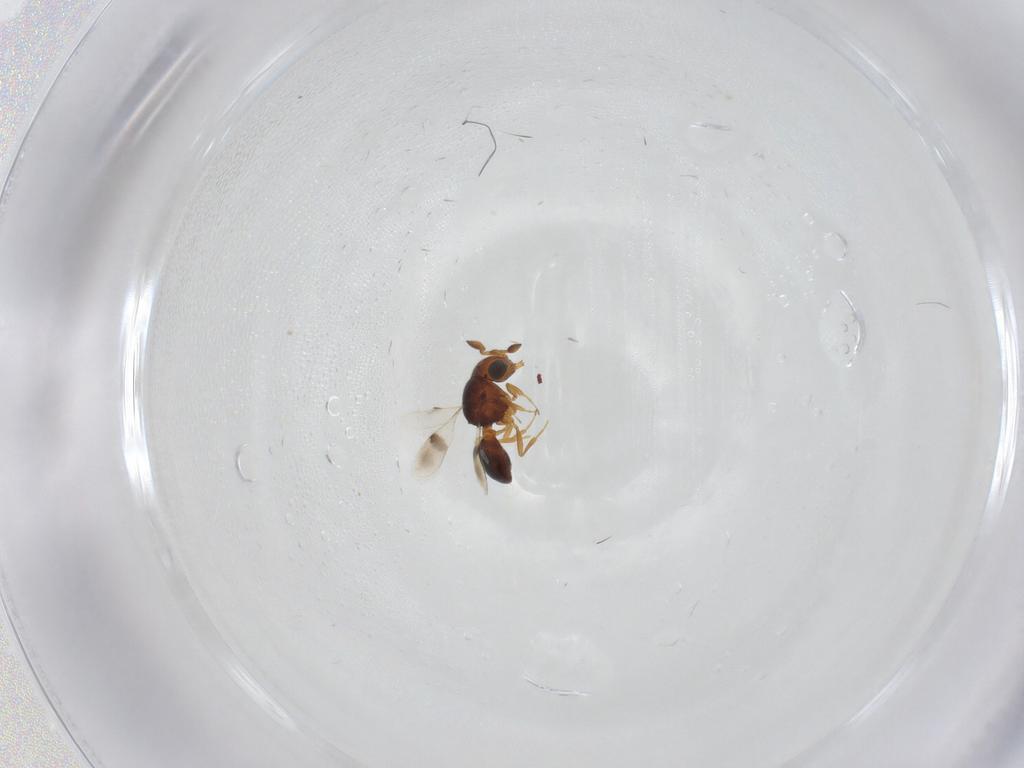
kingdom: Animalia
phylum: Arthropoda
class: Insecta
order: Hymenoptera
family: Scelionidae
